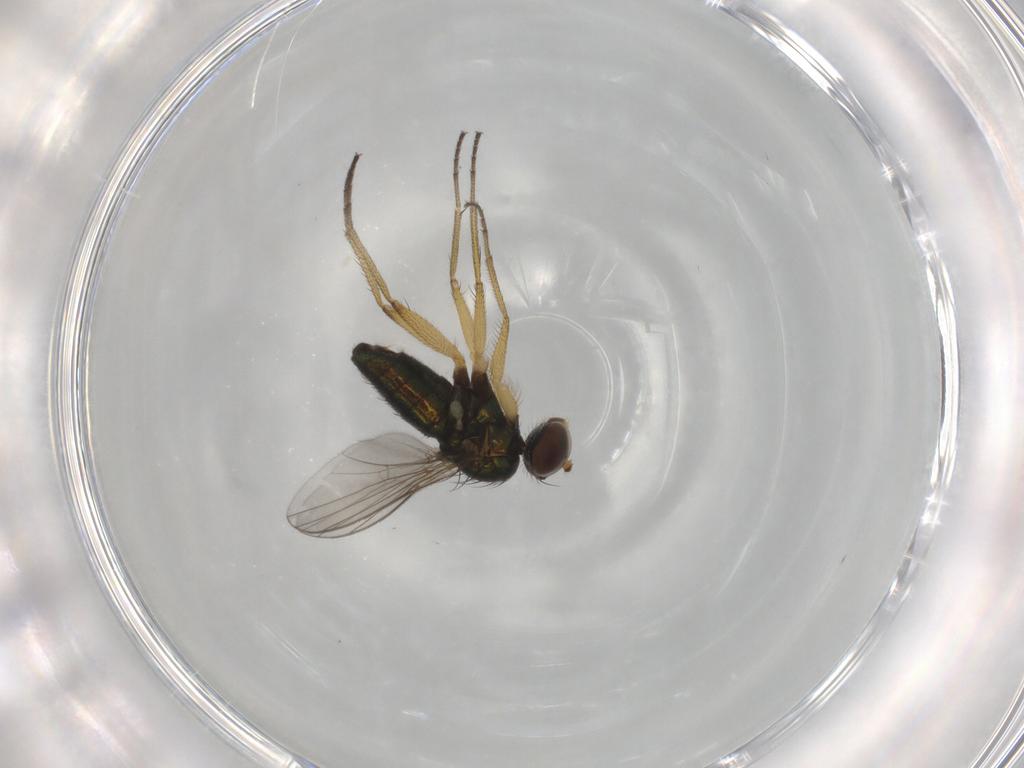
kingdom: Animalia
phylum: Arthropoda
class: Insecta
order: Diptera
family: Dolichopodidae
